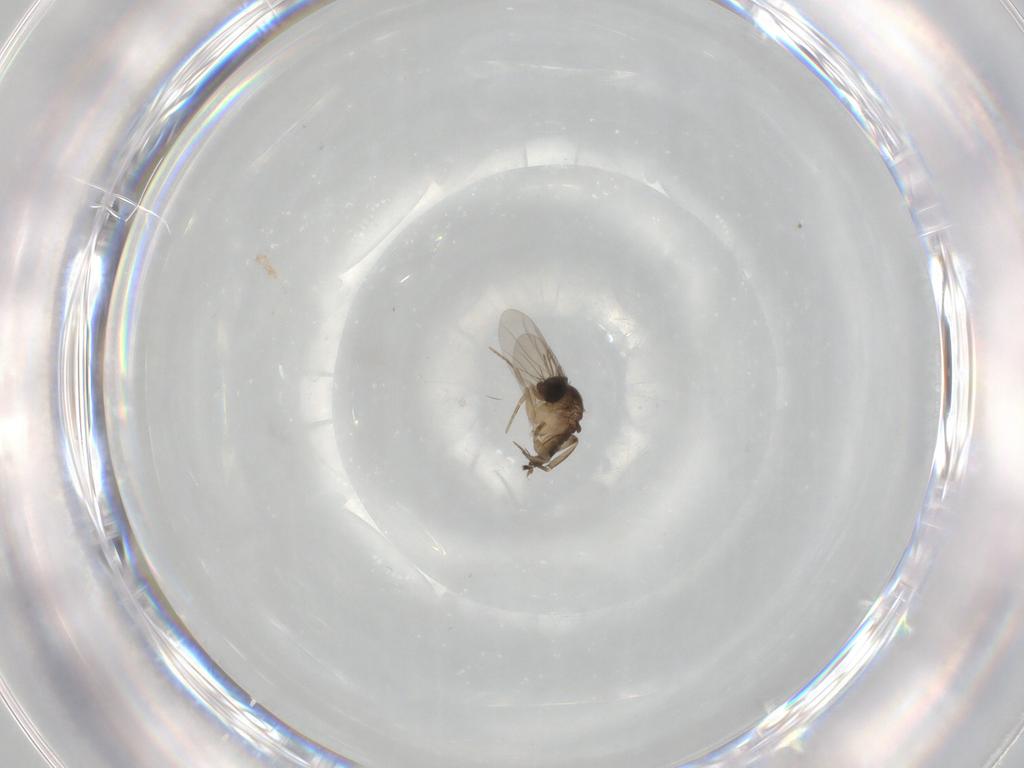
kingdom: Animalia
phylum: Arthropoda
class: Insecta
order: Diptera
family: Phoridae
